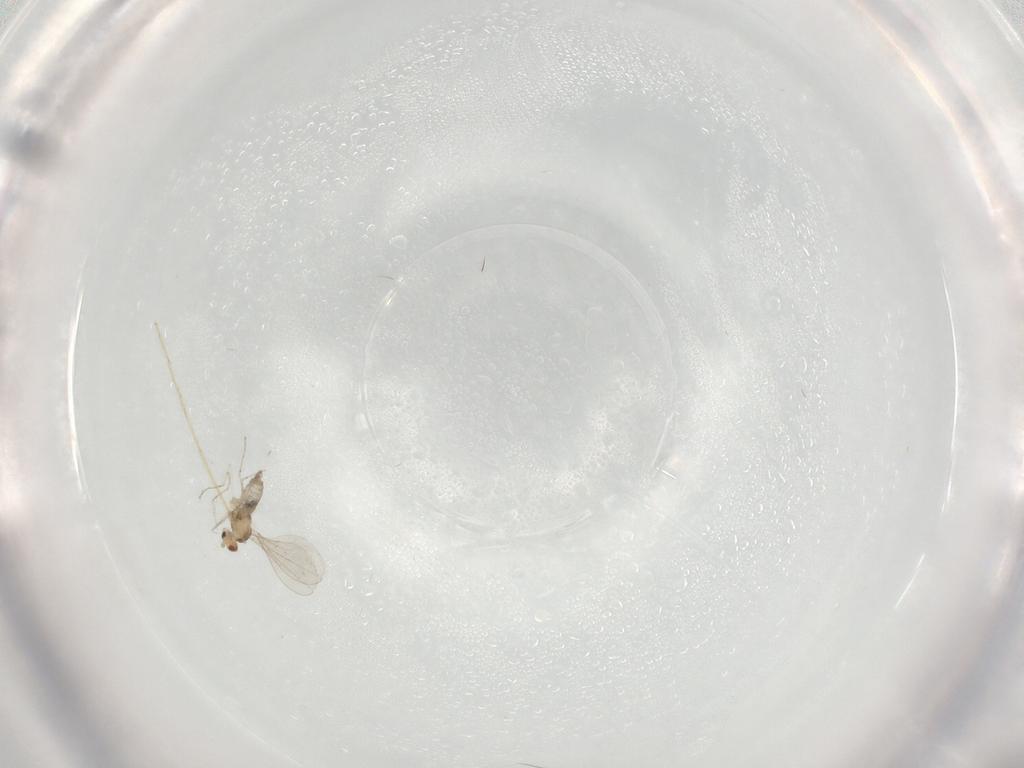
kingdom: Animalia
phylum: Arthropoda
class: Insecta
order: Diptera
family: Cecidomyiidae
